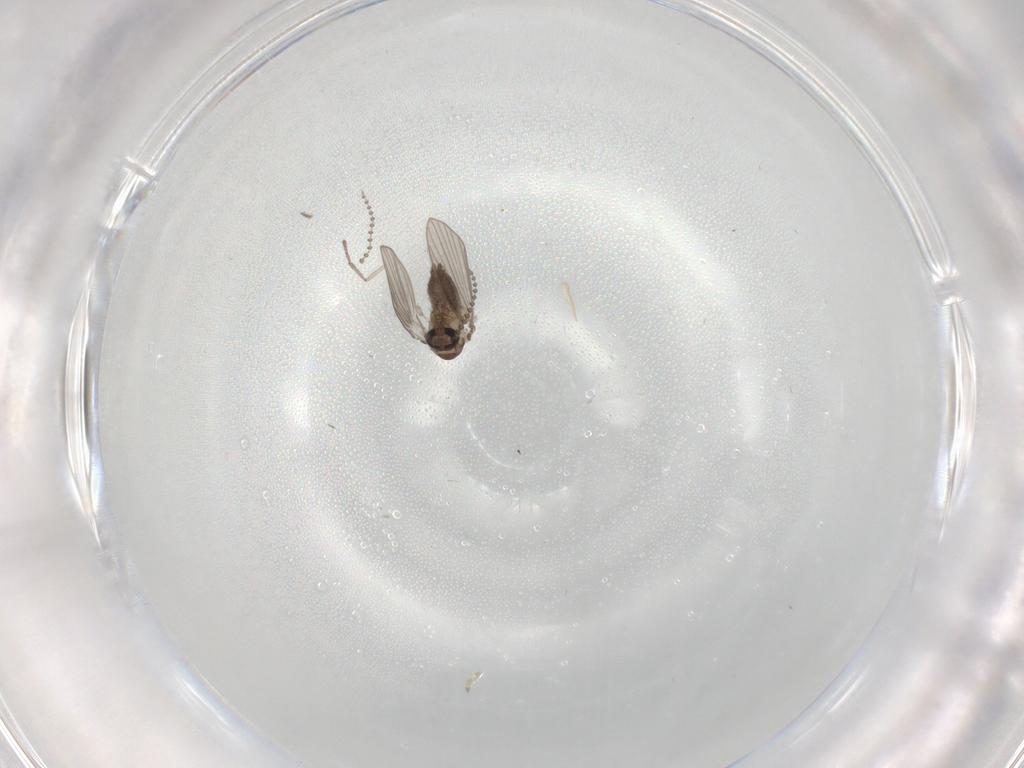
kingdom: Animalia
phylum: Arthropoda
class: Insecta
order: Diptera
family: Psychodidae
